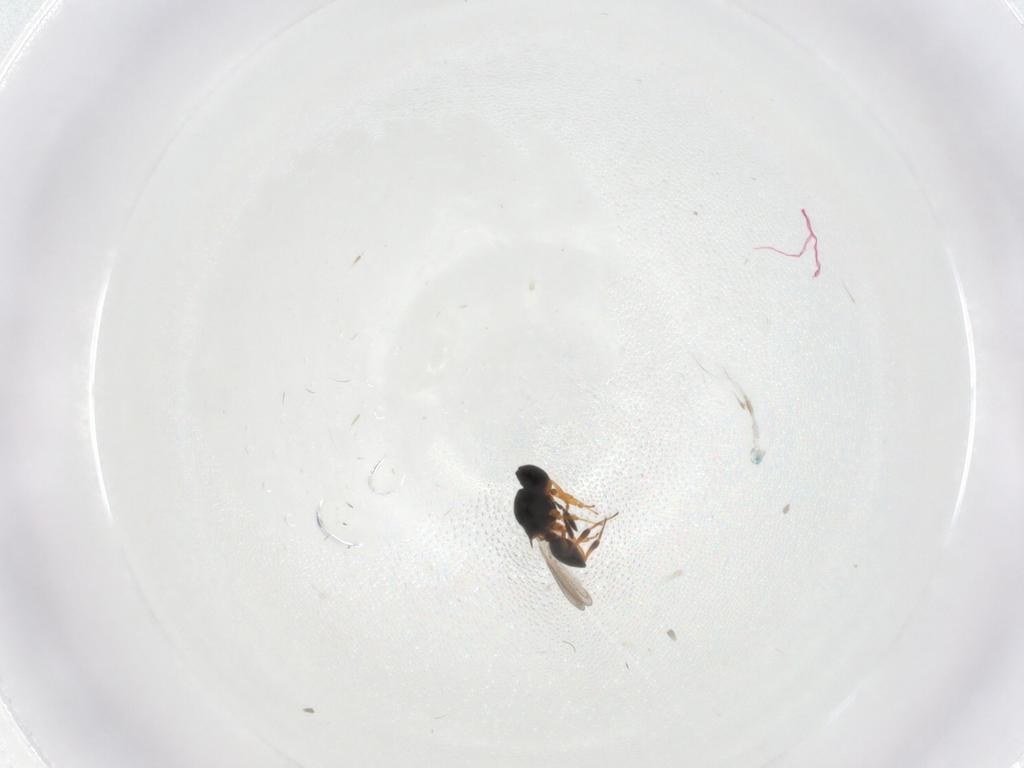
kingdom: Animalia
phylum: Arthropoda
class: Insecta
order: Hymenoptera
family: Platygastridae
